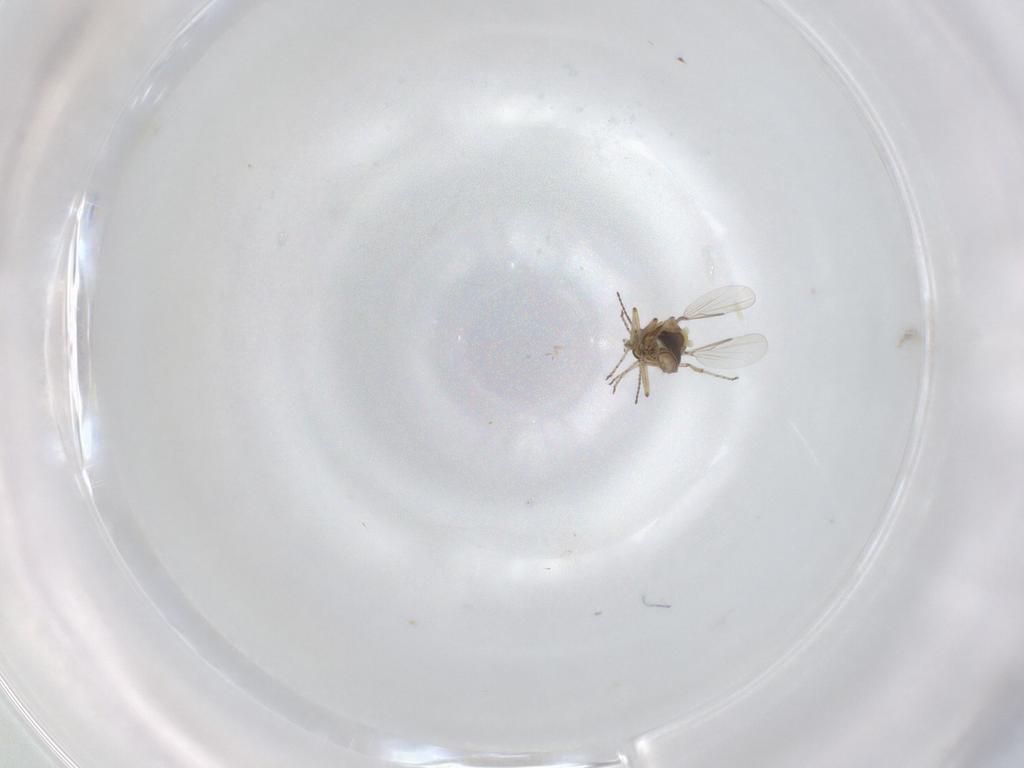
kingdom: Animalia
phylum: Arthropoda
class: Insecta
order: Diptera
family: Ceratopogonidae
